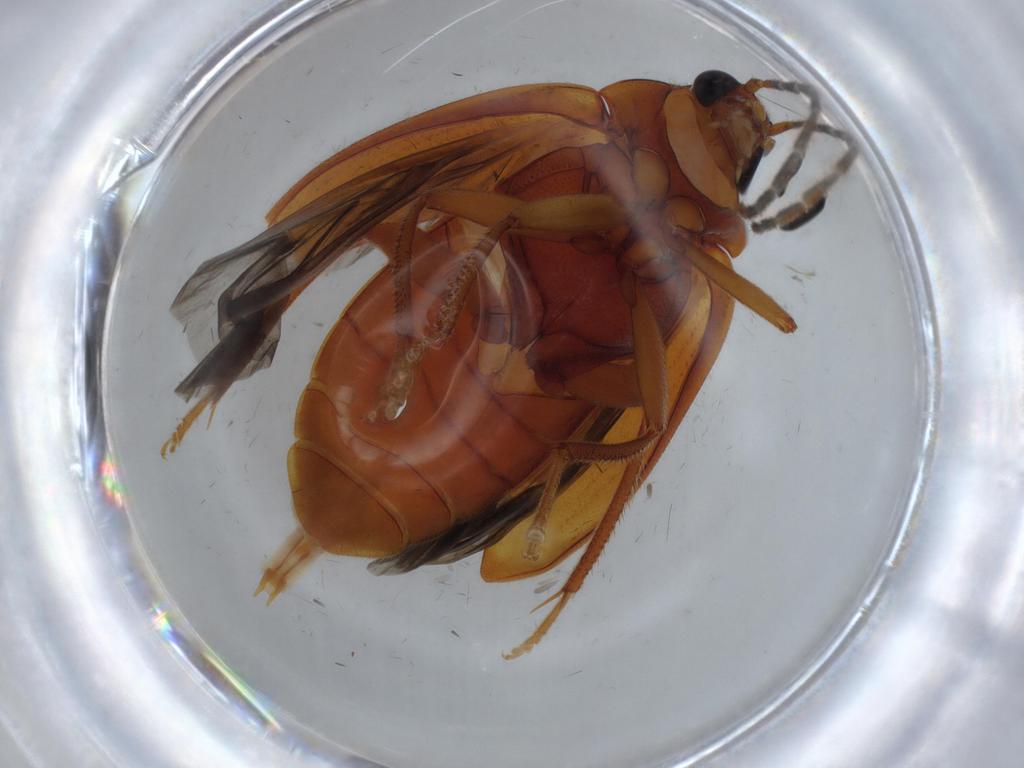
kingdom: Animalia
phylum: Arthropoda
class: Insecta
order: Coleoptera
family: Ptilodactylidae
